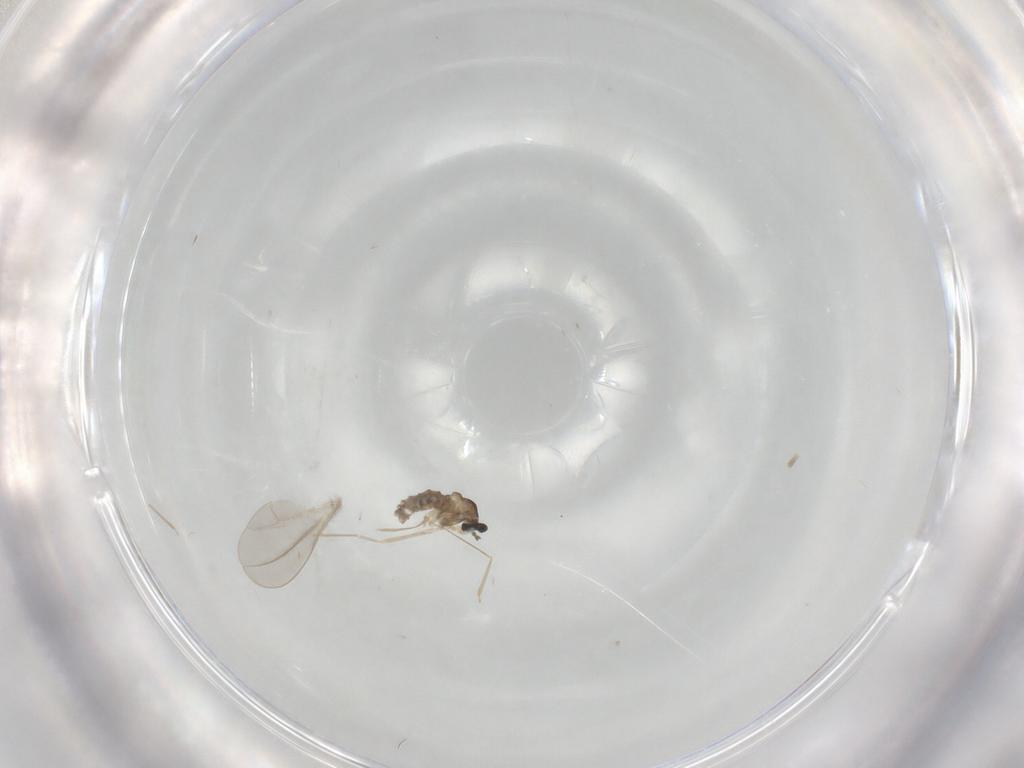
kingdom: Animalia
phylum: Arthropoda
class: Insecta
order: Diptera
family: Cecidomyiidae
